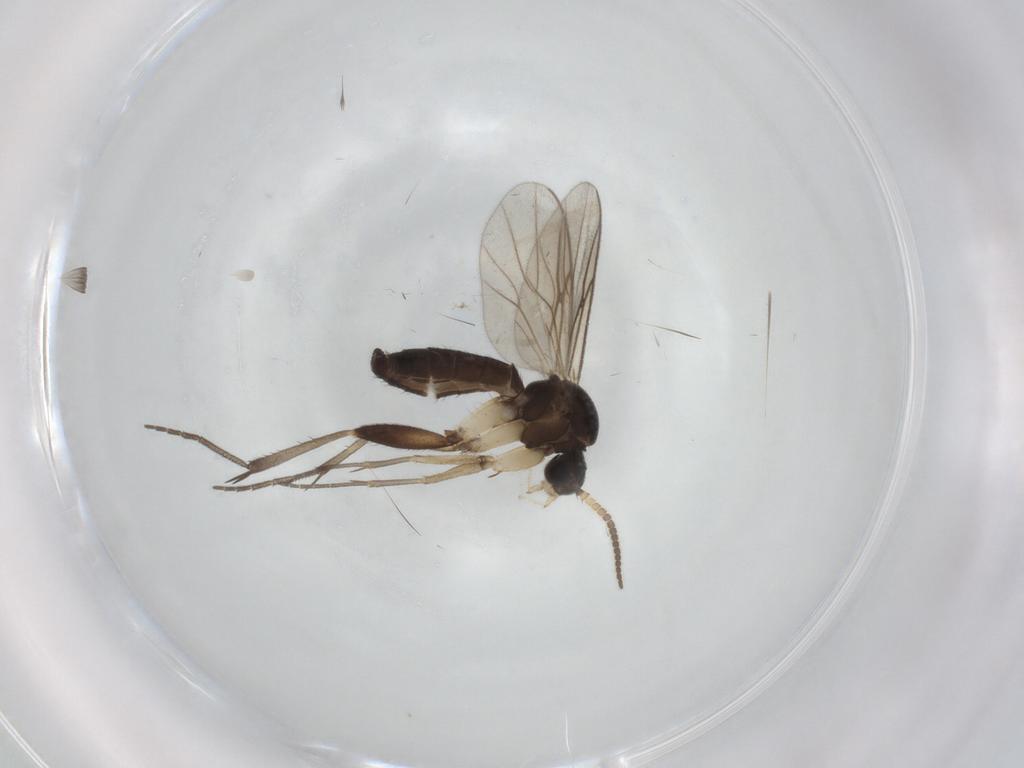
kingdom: Animalia
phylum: Arthropoda
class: Insecta
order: Diptera
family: Mycetophilidae
